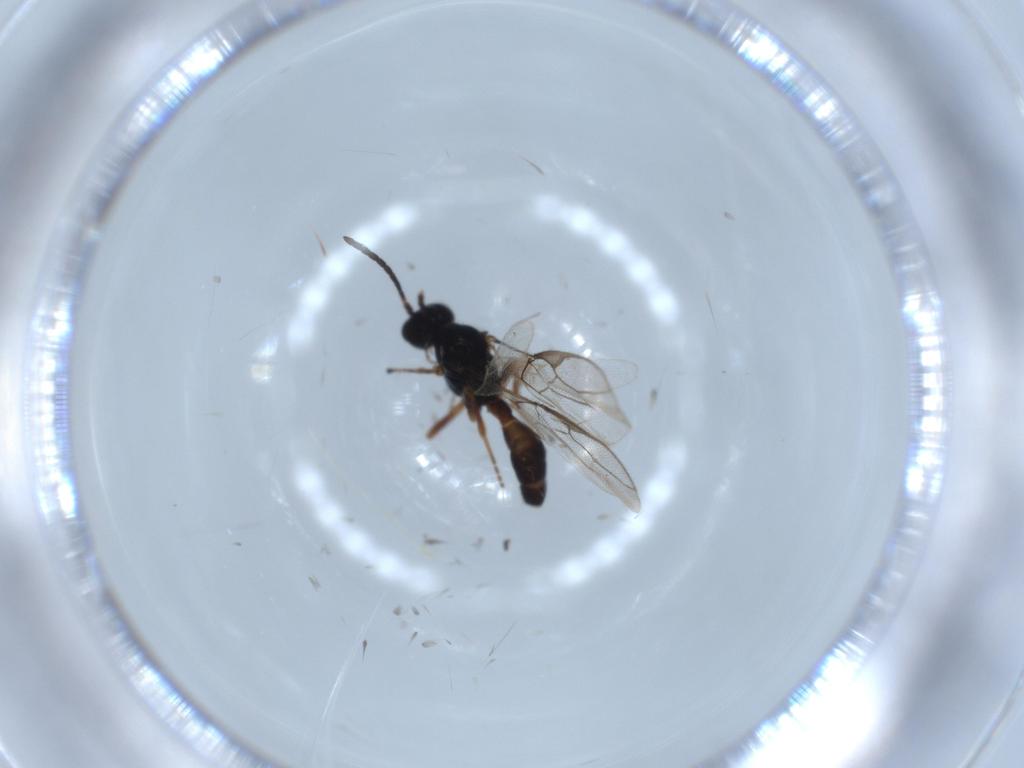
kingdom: Animalia
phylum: Arthropoda
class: Insecta
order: Hymenoptera
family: Braconidae
